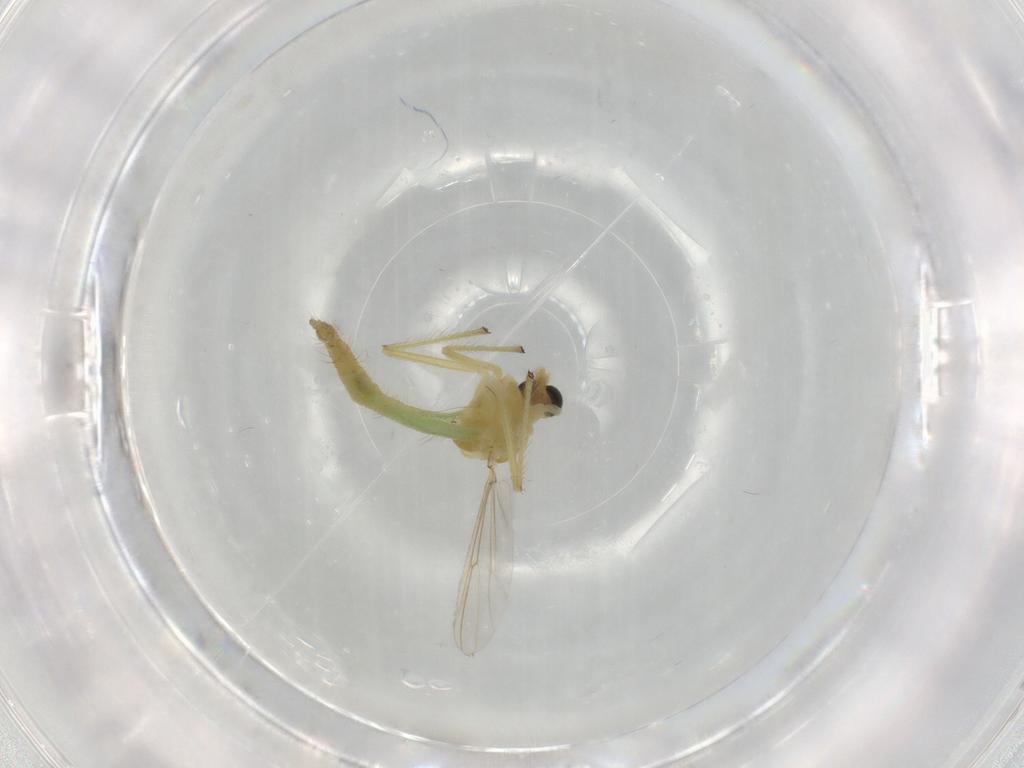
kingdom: Animalia
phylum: Arthropoda
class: Insecta
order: Diptera
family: Chironomidae
